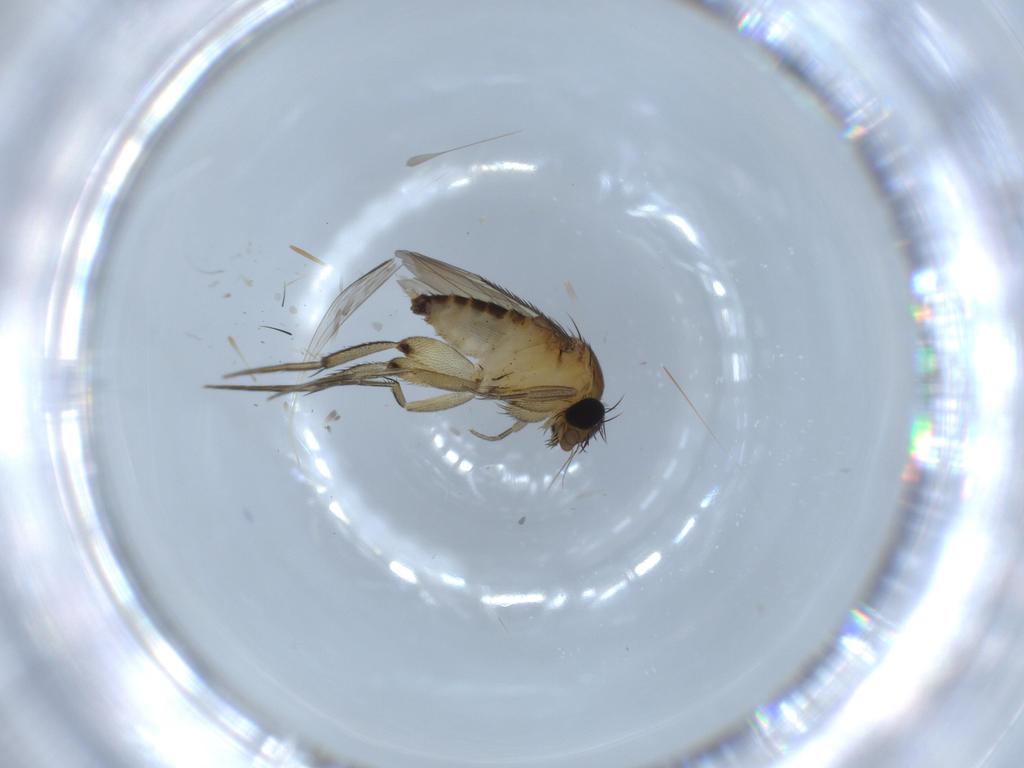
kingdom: Animalia
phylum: Arthropoda
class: Insecta
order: Diptera
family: Phoridae
